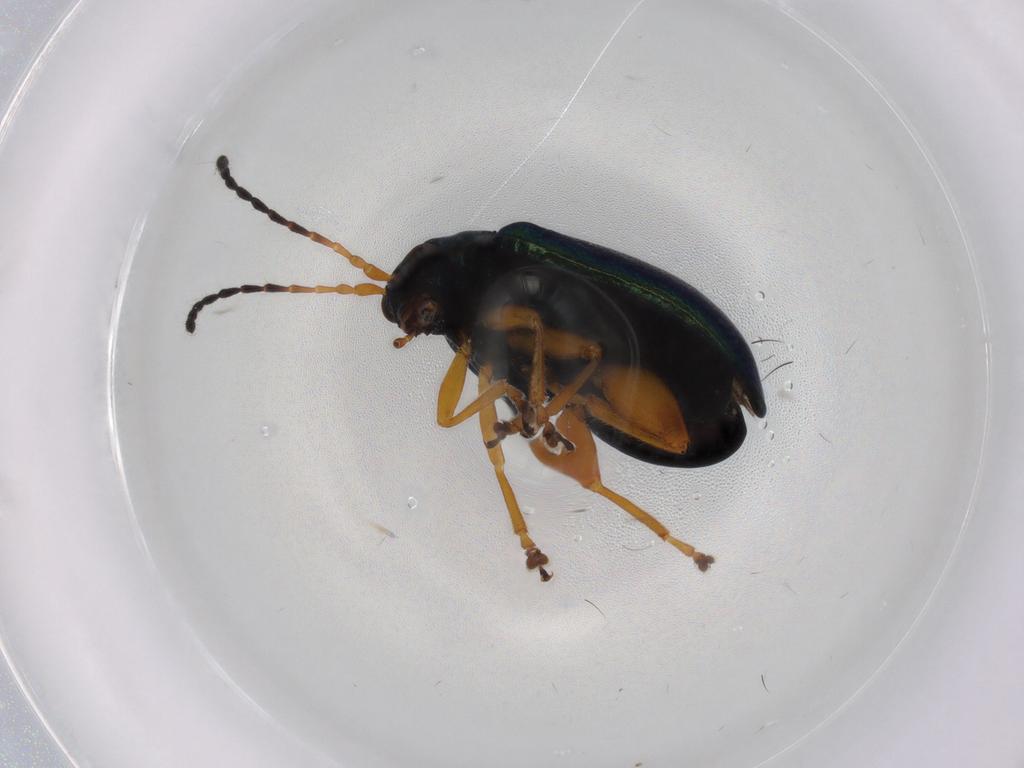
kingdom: Animalia
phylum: Arthropoda
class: Insecta
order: Coleoptera
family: Chrysomelidae
